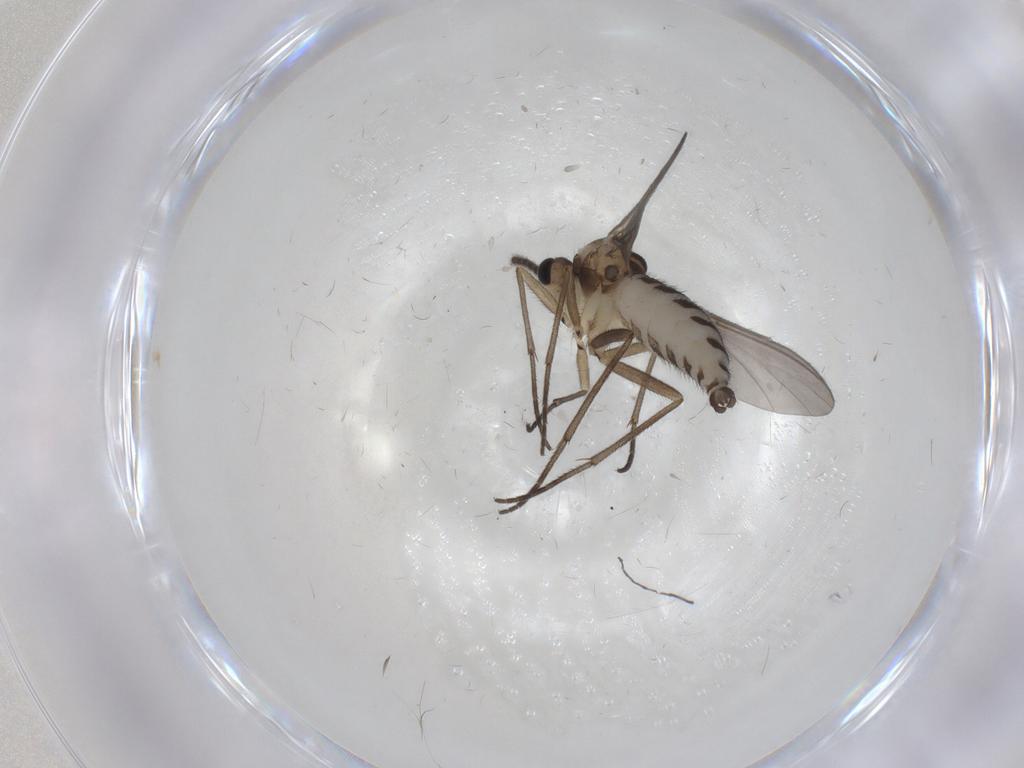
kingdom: Animalia
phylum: Arthropoda
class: Insecta
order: Diptera
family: Sciaridae
